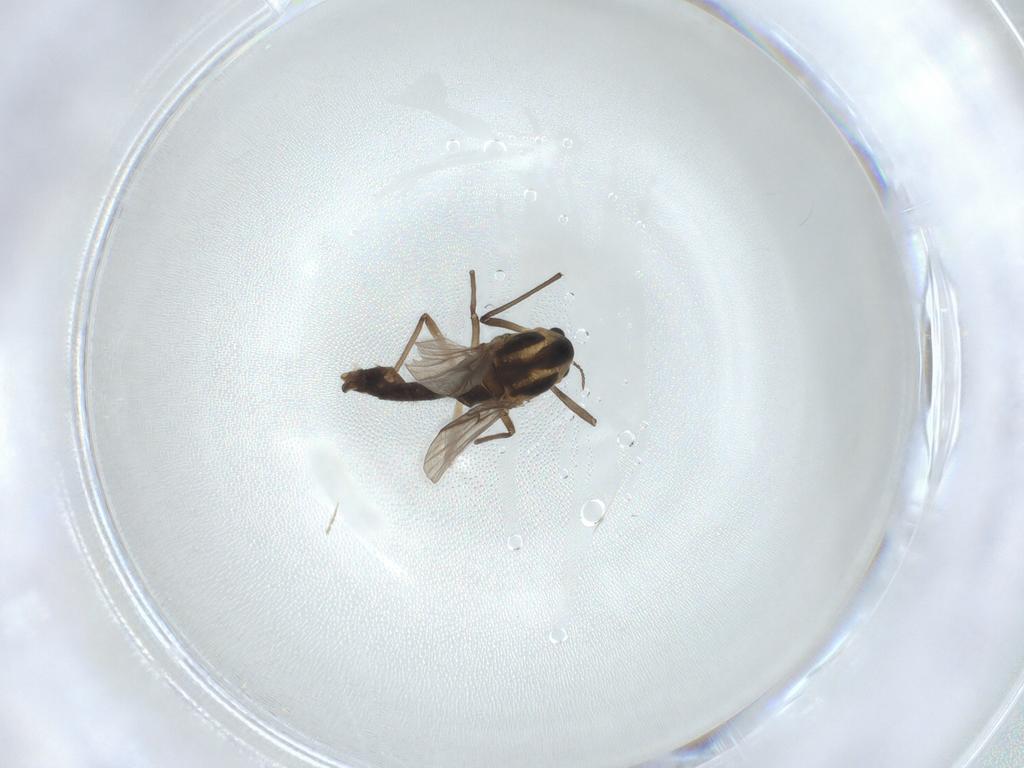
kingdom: Animalia
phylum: Arthropoda
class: Insecta
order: Diptera
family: Chironomidae
